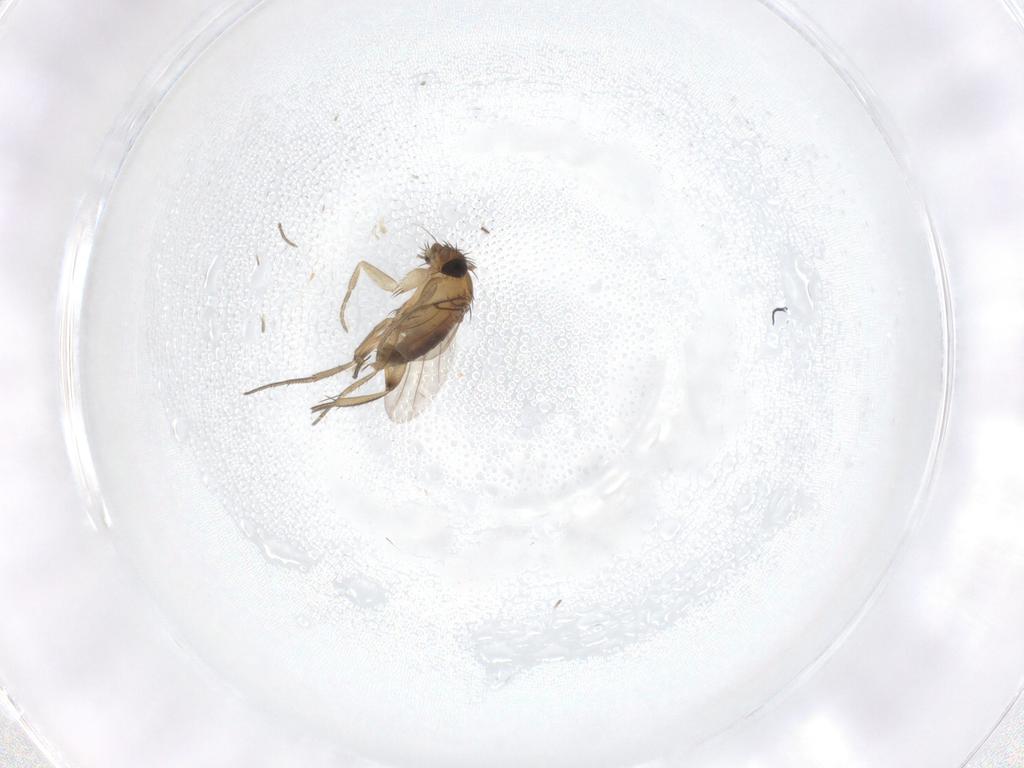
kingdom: Animalia
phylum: Arthropoda
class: Insecta
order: Diptera
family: Phoridae
